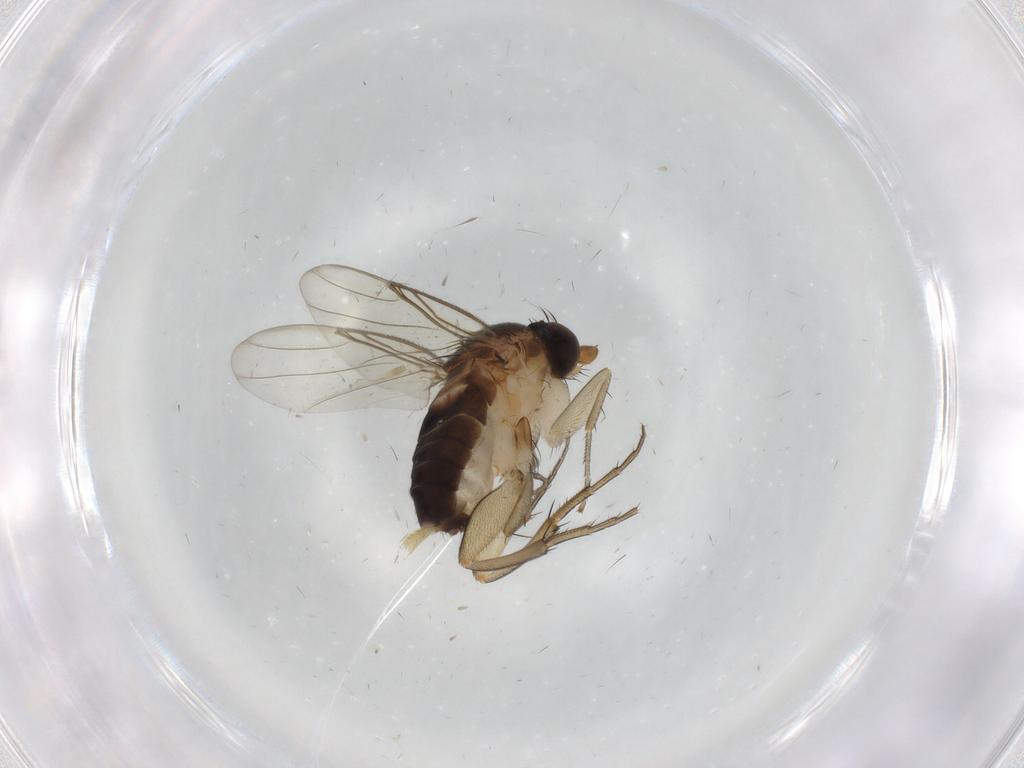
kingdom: Animalia
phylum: Arthropoda
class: Insecta
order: Diptera
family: Phoridae
